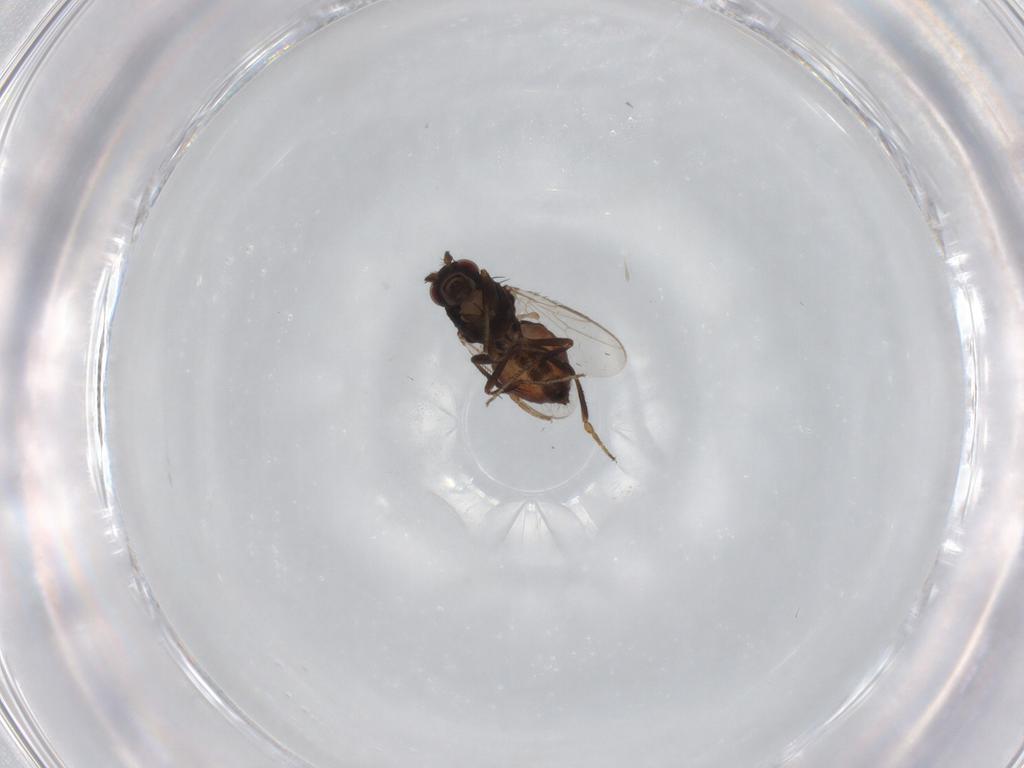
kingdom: Animalia
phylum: Arthropoda
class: Insecta
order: Diptera
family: Sphaeroceridae
